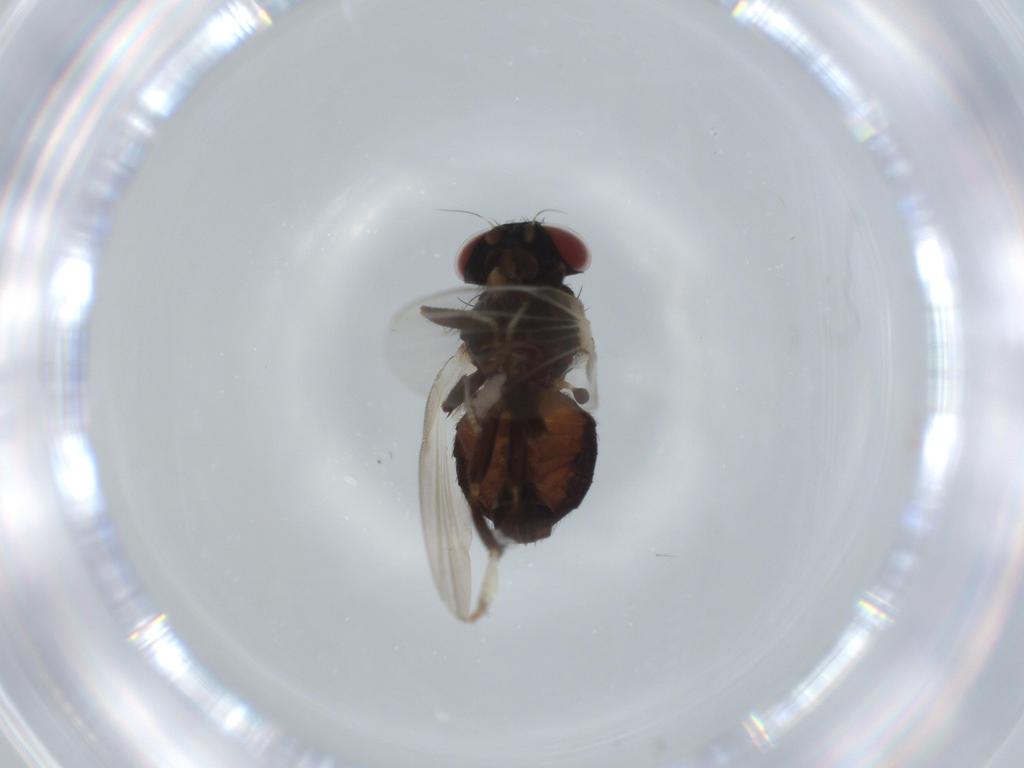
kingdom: Animalia
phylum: Arthropoda
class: Insecta
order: Diptera
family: Lonchaeidae
